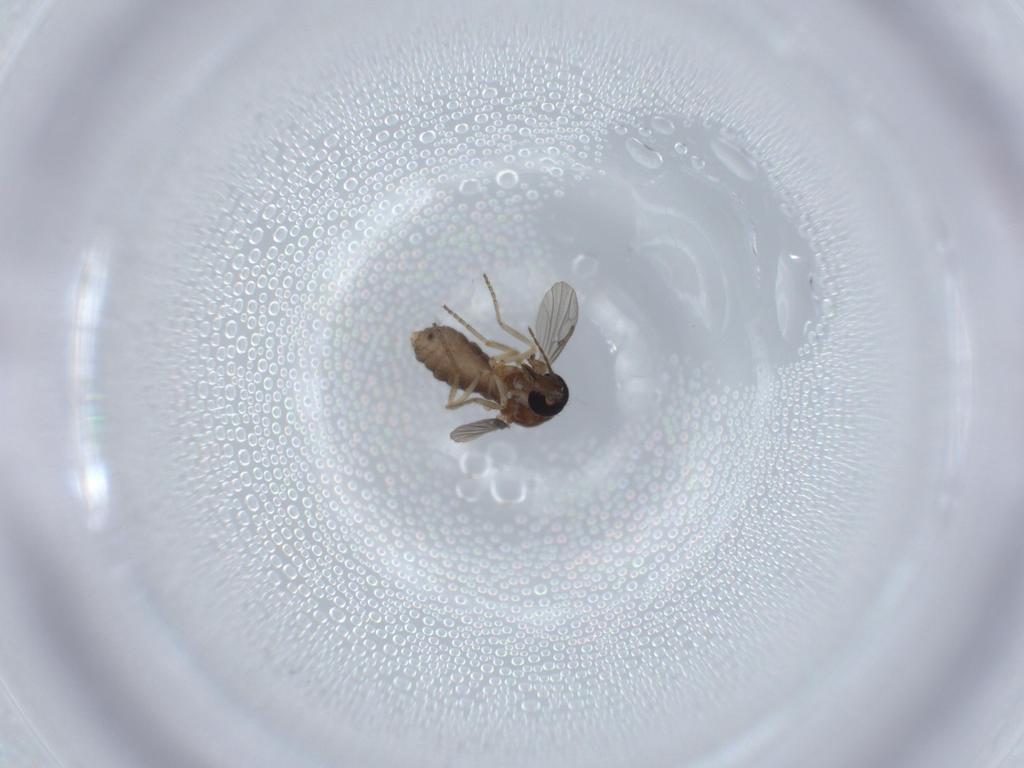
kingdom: Animalia
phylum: Arthropoda
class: Insecta
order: Diptera
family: Ceratopogonidae
